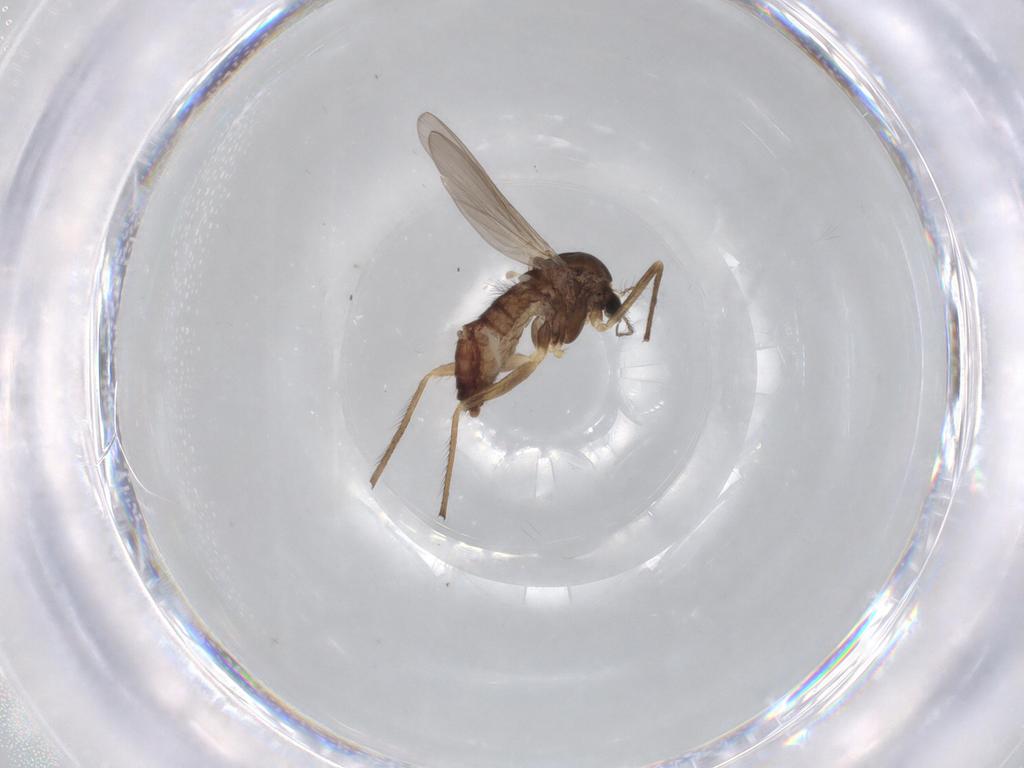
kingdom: Animalia
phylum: Arthropoda
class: Insecta
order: Diptera
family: Chironomidae
